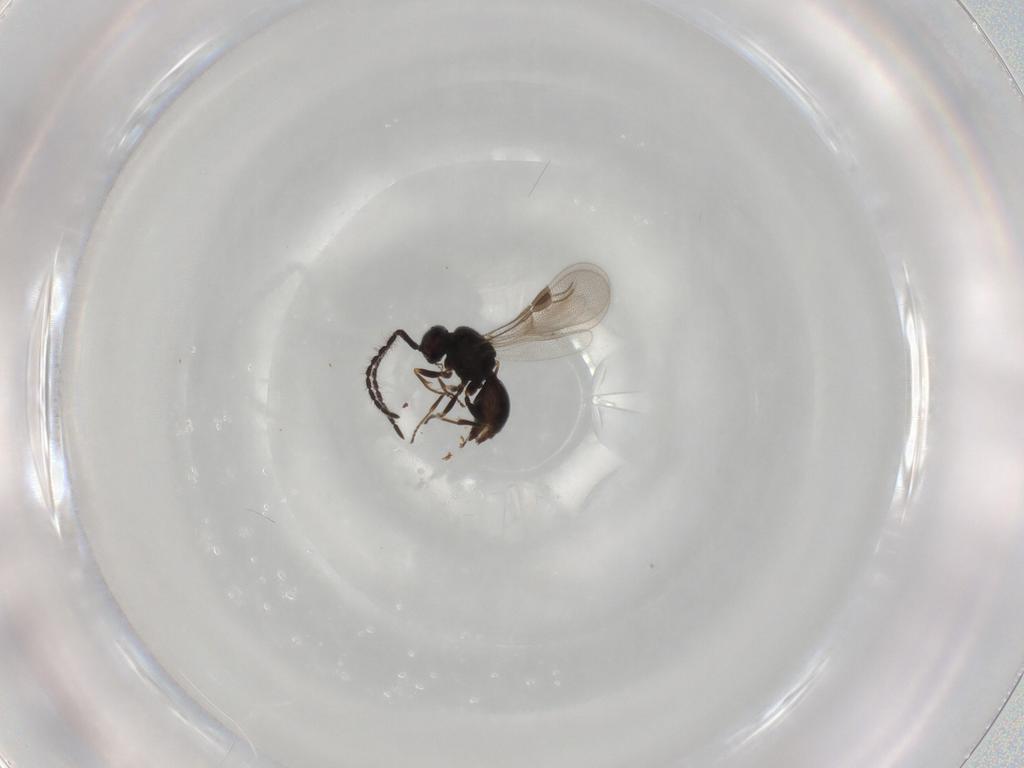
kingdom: Animalia
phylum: Arthropoda
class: Insecta
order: Hymenoptera
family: Megaspilidae
